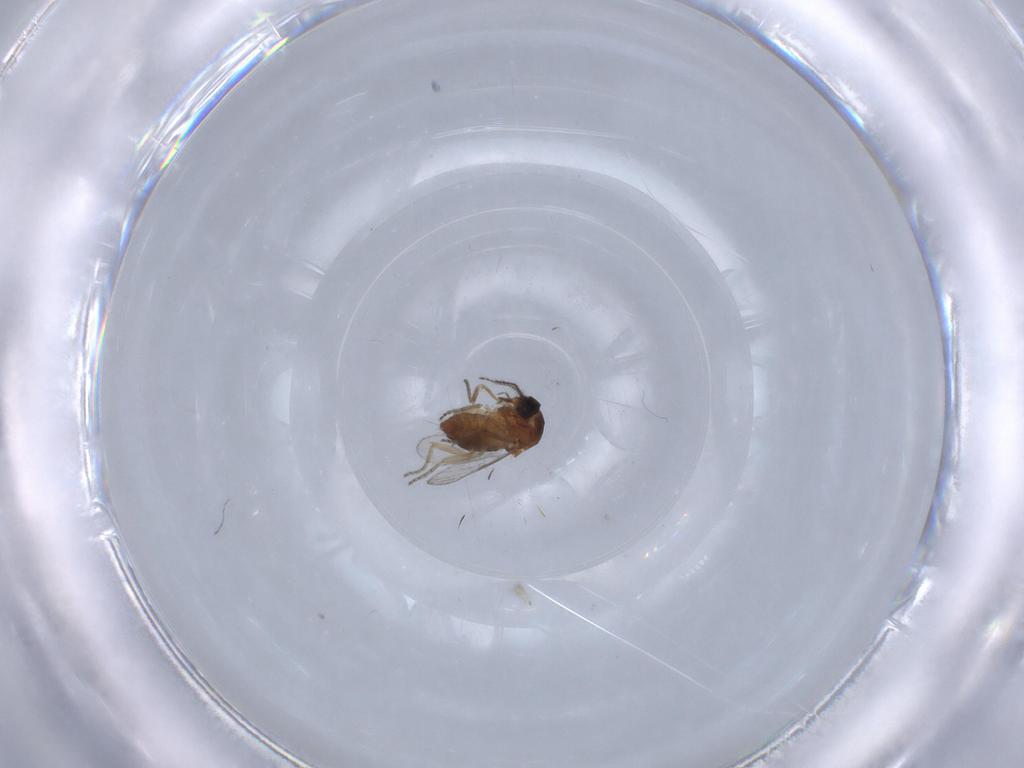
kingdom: Animalia
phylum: Arthropoda
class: Insecta
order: Diptera
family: Ceratopogonidae
